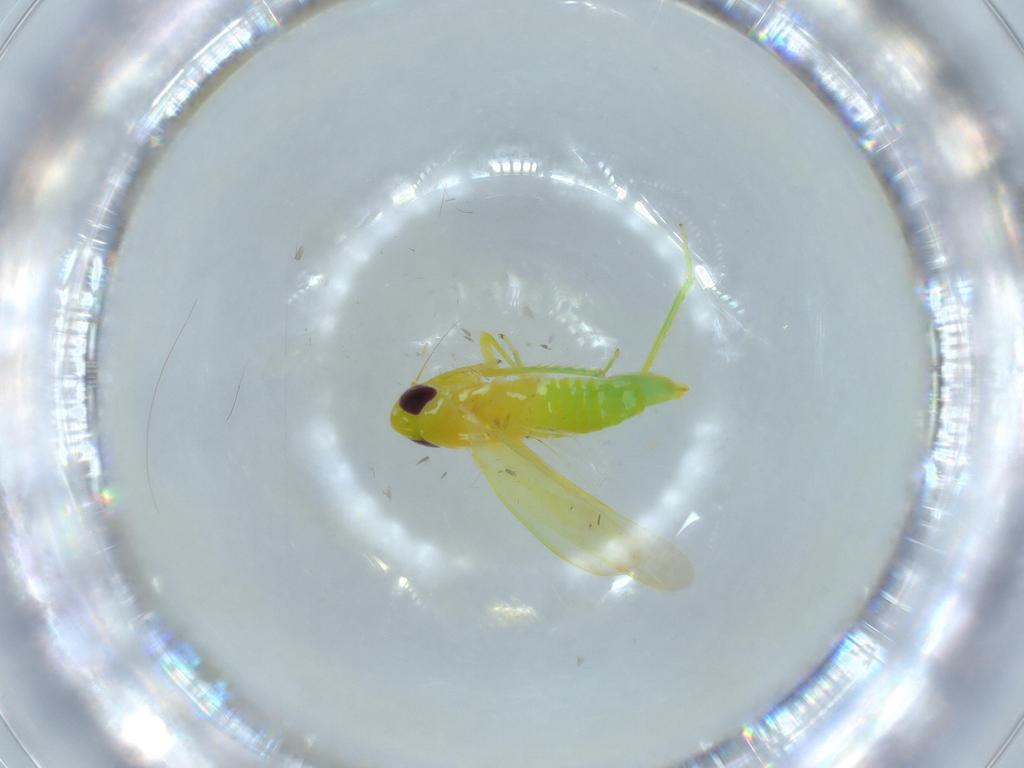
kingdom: Animalia
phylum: Arthropoda
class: Insecta
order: Hemiptera
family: Cicadellidae
